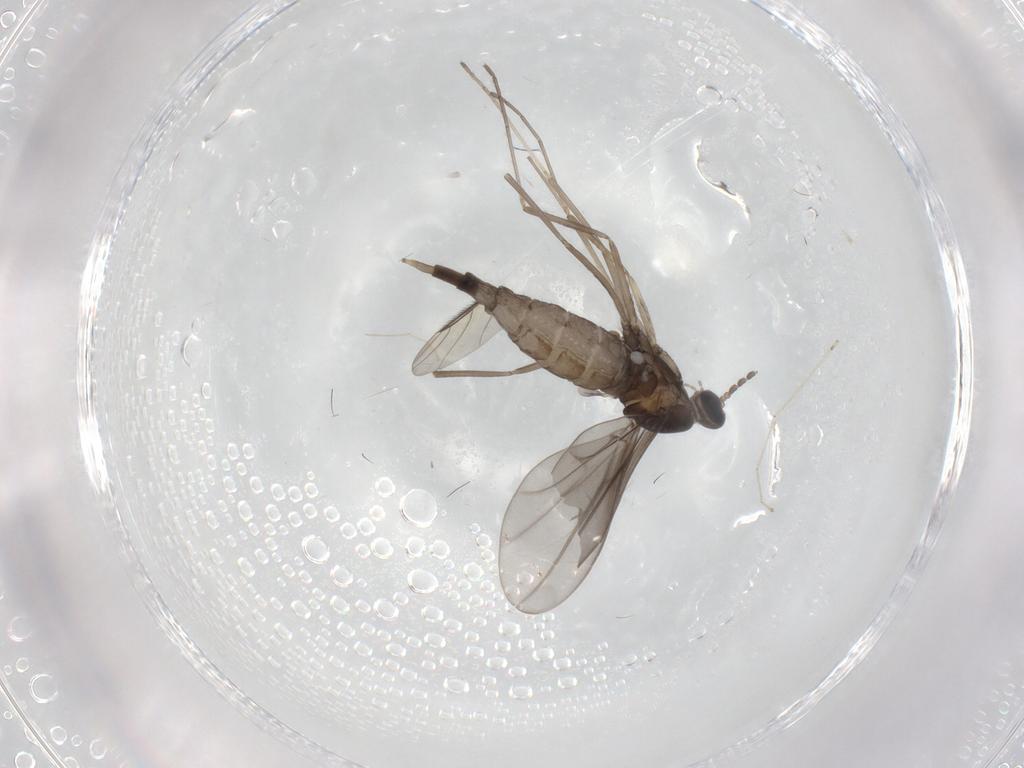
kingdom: Animalia
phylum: Arthropoda
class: Insecta
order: Diptera
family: Cecidomyiidae
